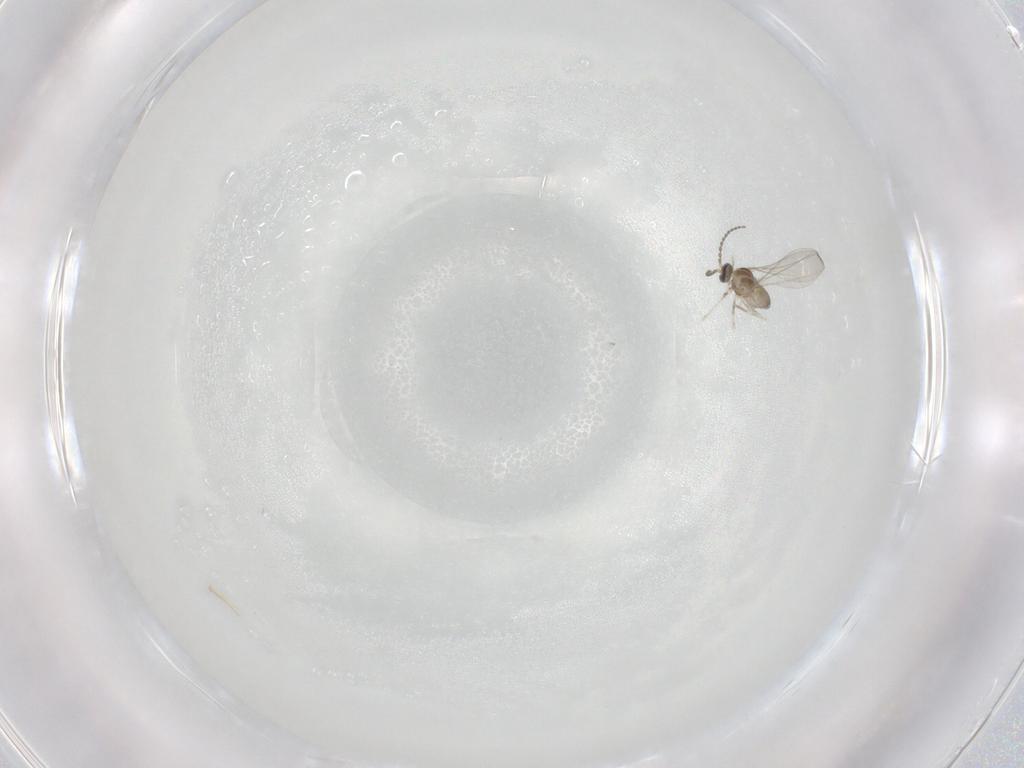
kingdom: Animalia
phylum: Arthropoda
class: Insecta
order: Diptera
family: Cecidomyiidae
